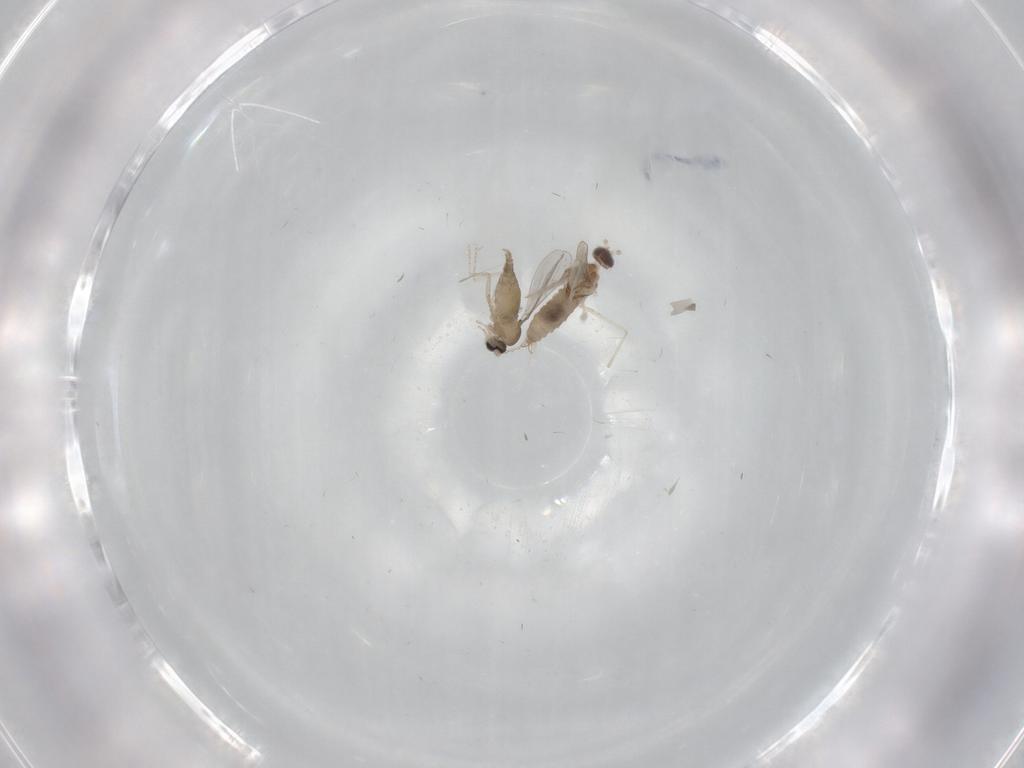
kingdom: Animalia
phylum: Arthropoda
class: Insecta
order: Diptera
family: Cecidomyiidae
